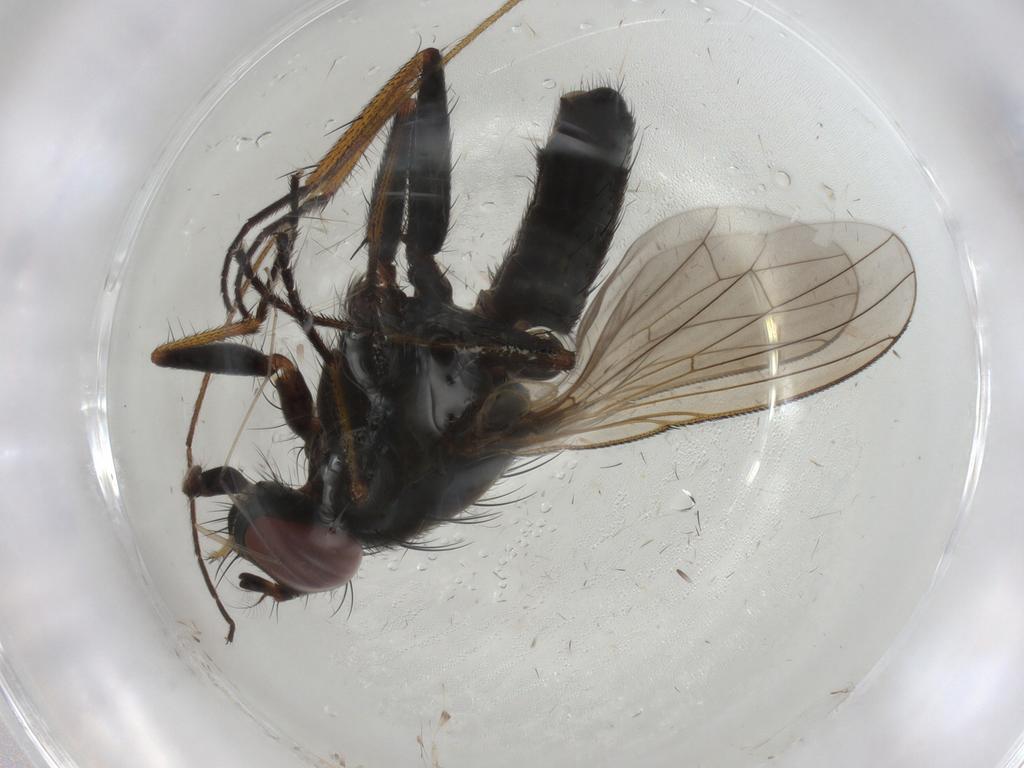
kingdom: Animalia
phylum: Arthropoda
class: Insecta
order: Diptera
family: Muscidae
